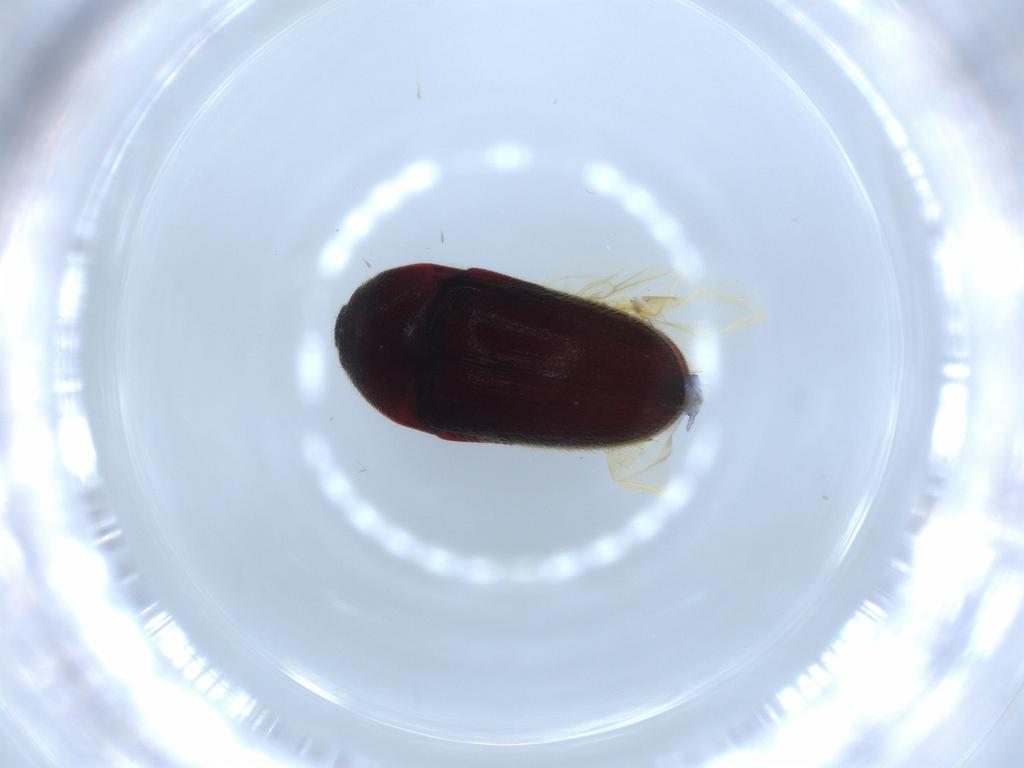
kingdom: Animalia
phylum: Arthropoda
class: Insecta
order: Coleoptera
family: Throscidae
